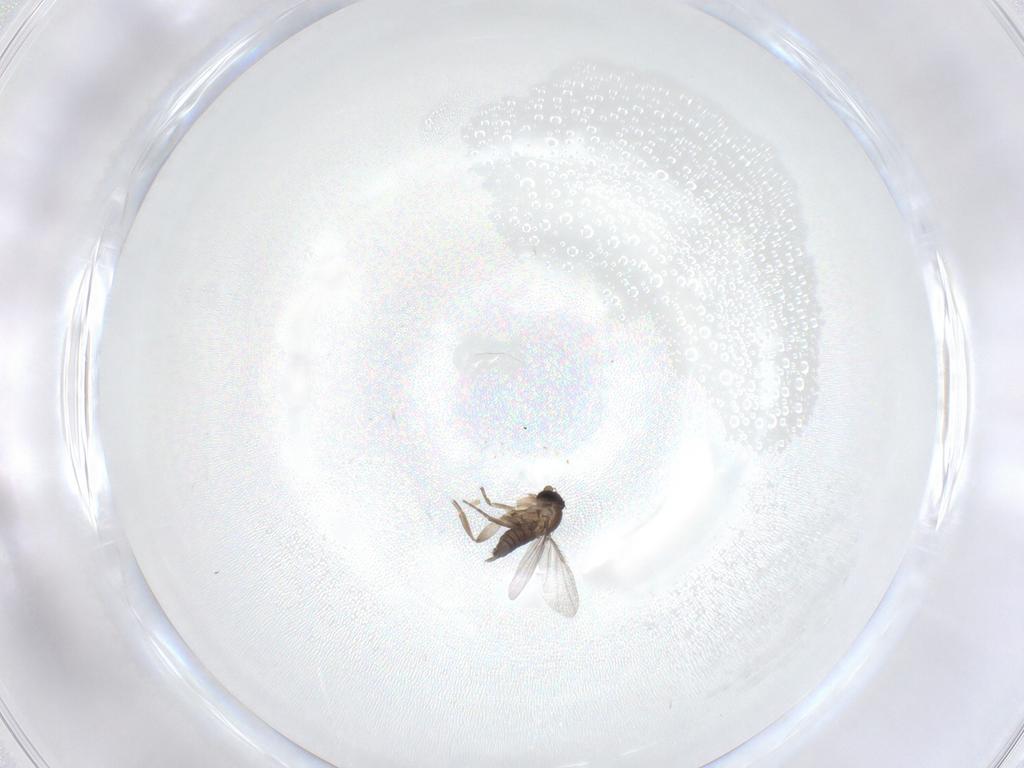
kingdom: Animalia
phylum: Arthropoda
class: Insecta
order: Diptera
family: Phoridae
